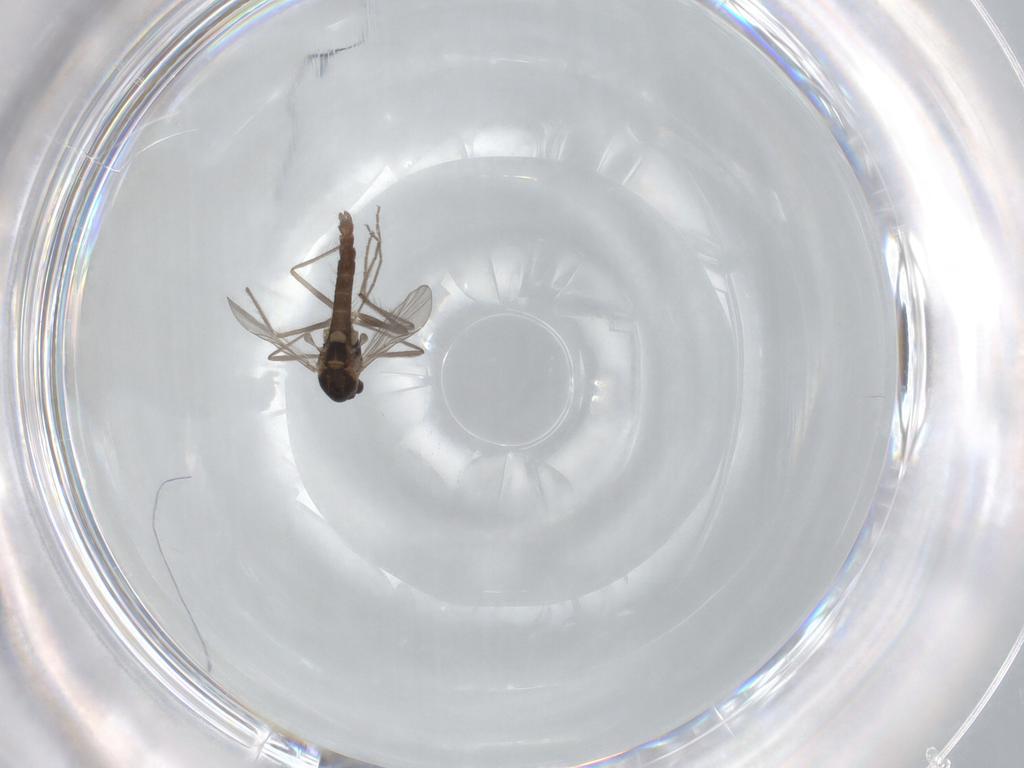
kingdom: Animalia
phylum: Arthropoda
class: Insecta
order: Diptera
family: Chironomidae
